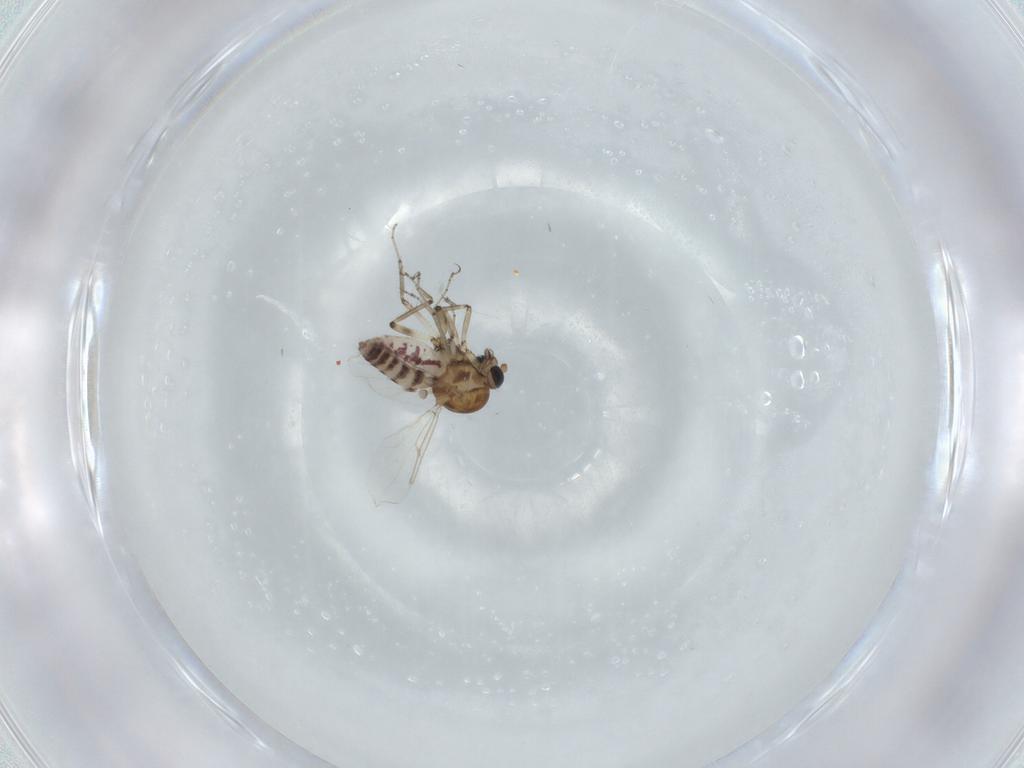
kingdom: Animalia
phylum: Arthropoda
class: Insecta
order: Diptera
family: Ceratopogonidae
